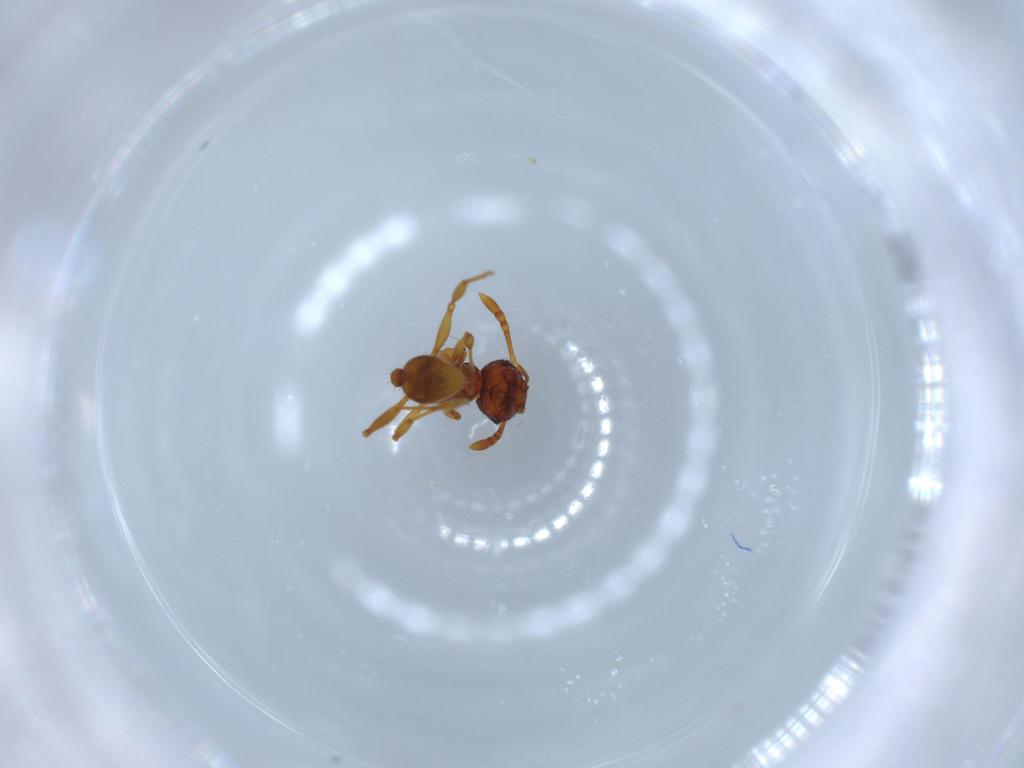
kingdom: Animalia
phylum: Arthropoda
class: Insecta
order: Hymenoptera
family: Formicidae
